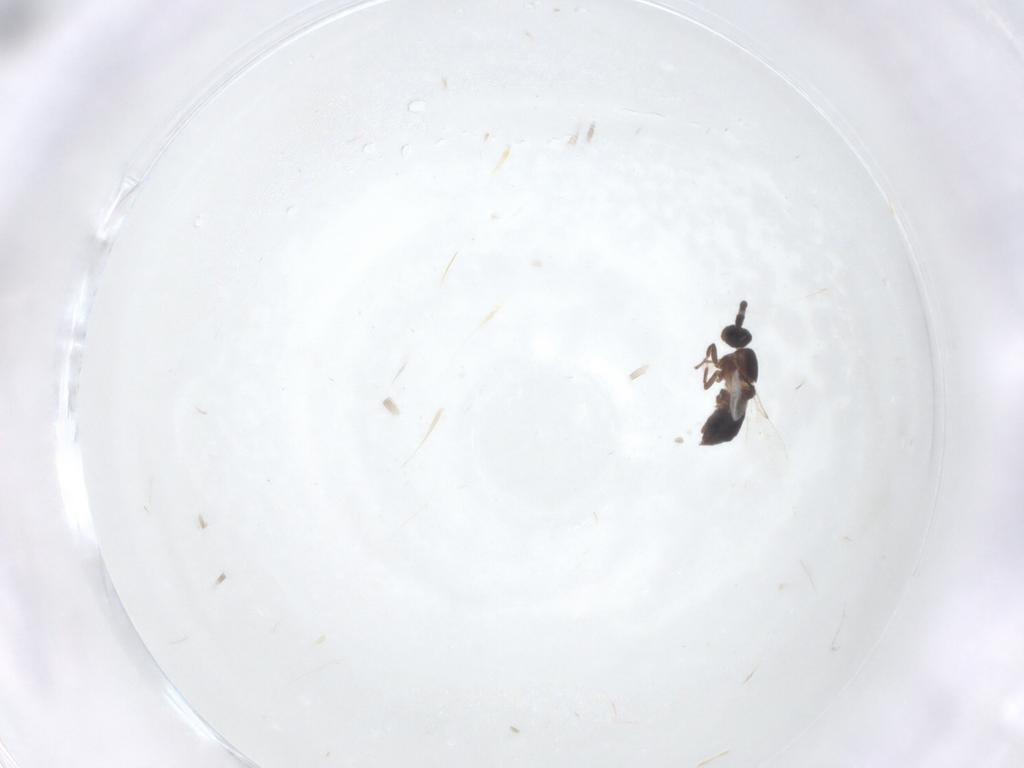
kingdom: Animalia
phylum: Arthropoda
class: Insecta
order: Diptera
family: Scatopsidae
